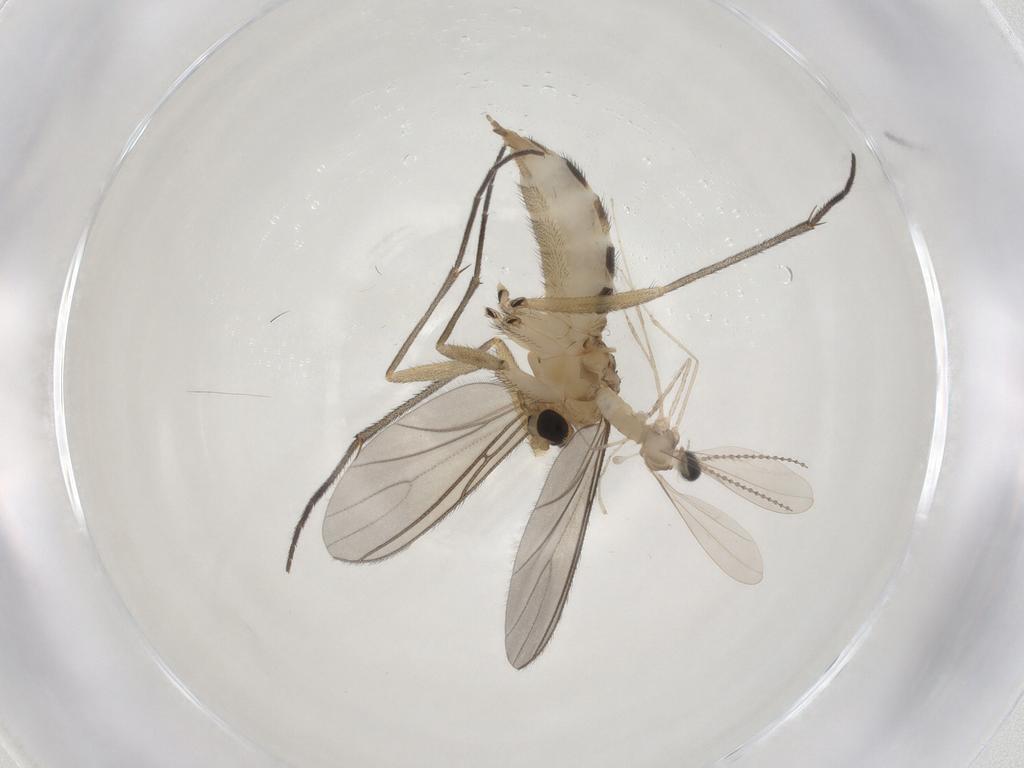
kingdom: Animalia
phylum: Arthropoda
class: Insecta
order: Diptera
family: Sciaridae
